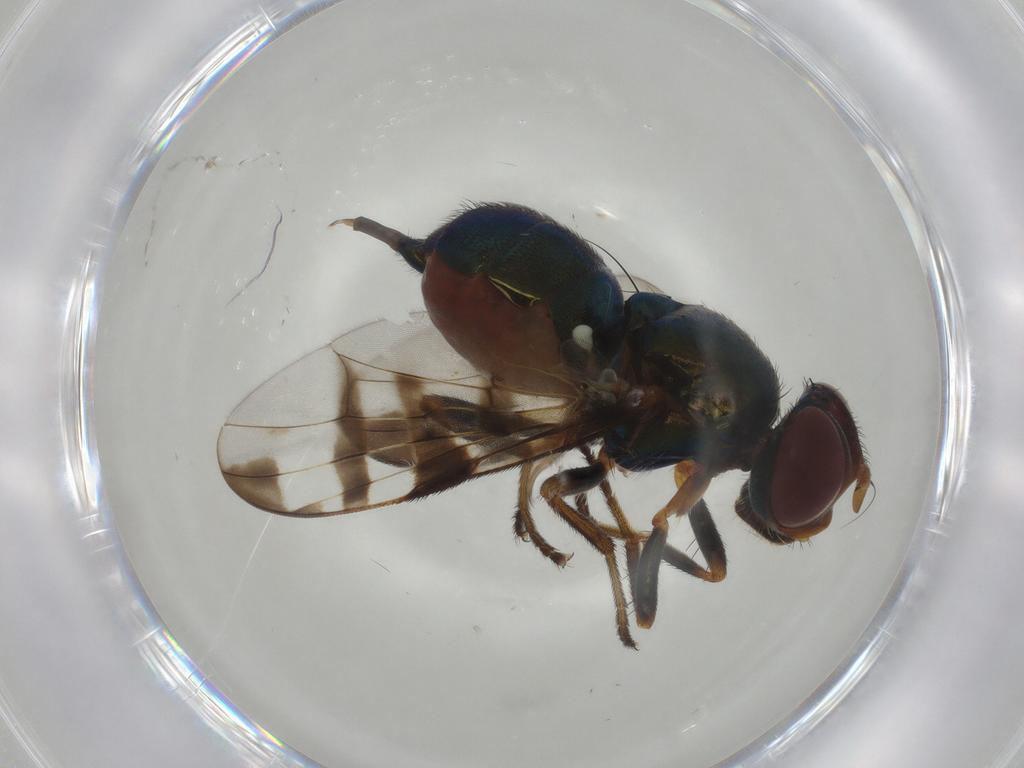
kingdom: Animalia
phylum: Arthropoda
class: Insecta
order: Diptera
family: Platystomatidae
